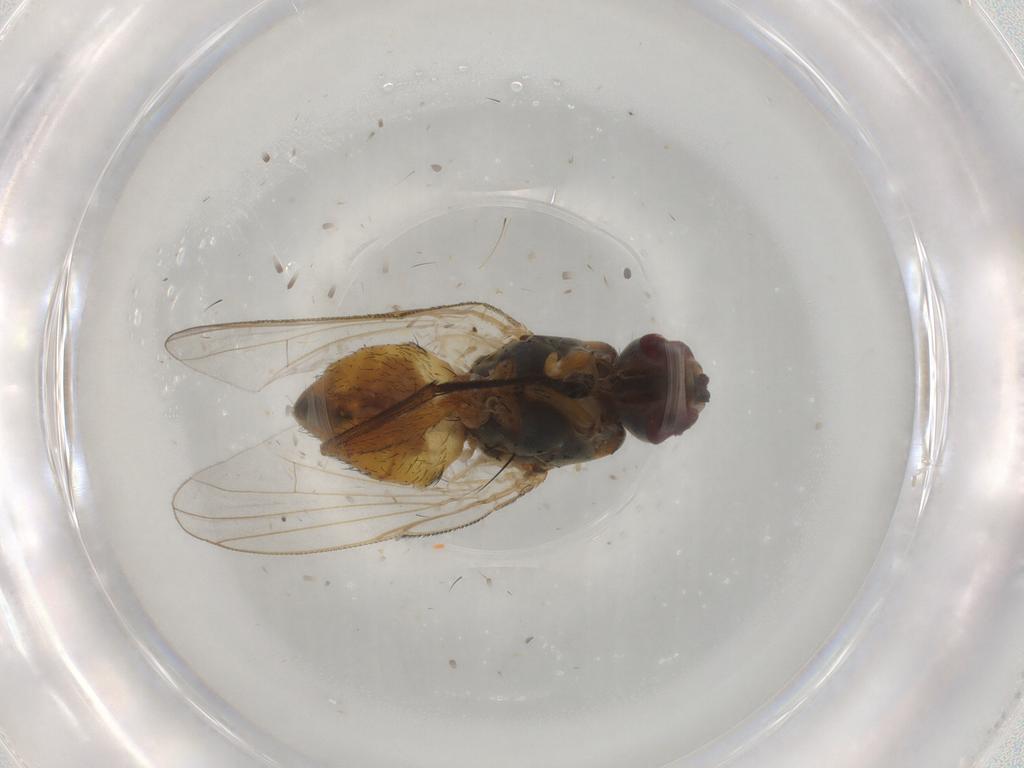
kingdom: Animalia
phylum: Arthropoda
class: Insecta
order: Diptera
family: Muscidae
